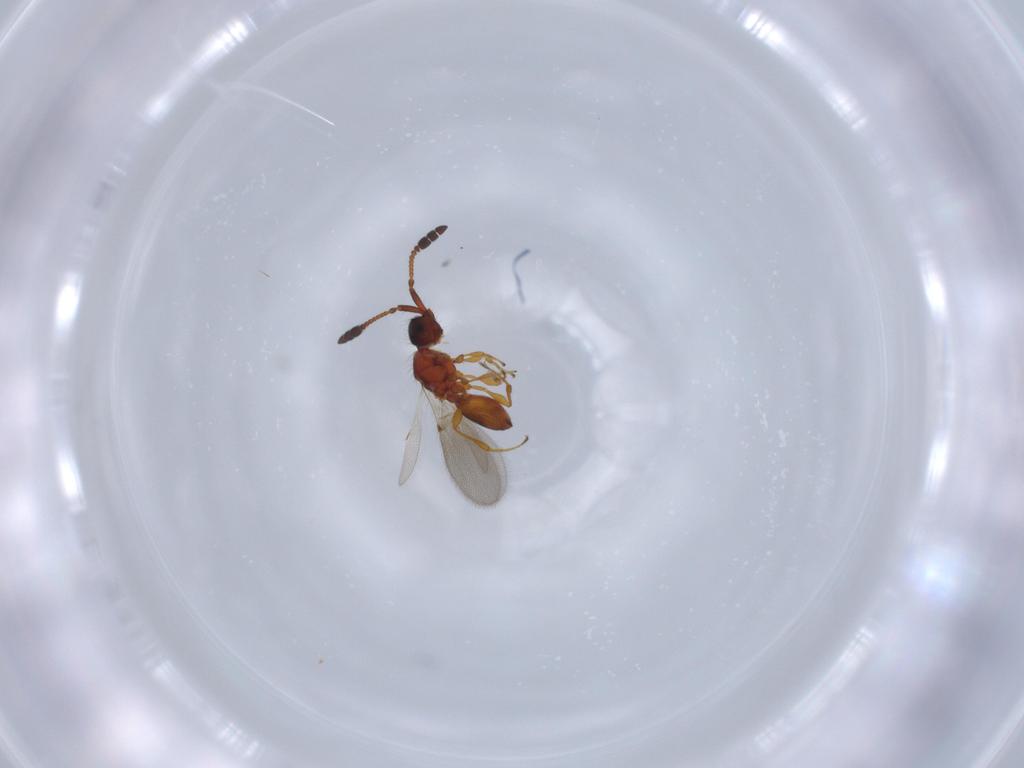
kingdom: Animalia
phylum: Arthropoda
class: Insecta
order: Hymenoptera
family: Diapriidae
